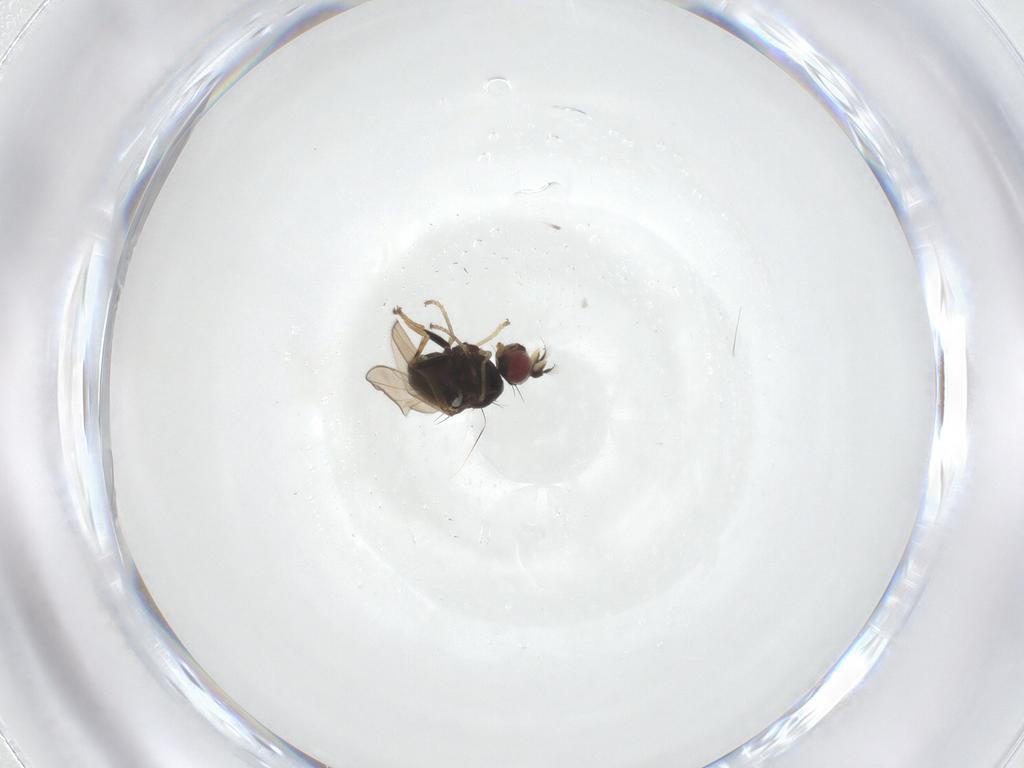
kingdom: Animalia
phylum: Arthropoda
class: Insecta
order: Diptera
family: Ephydridae
